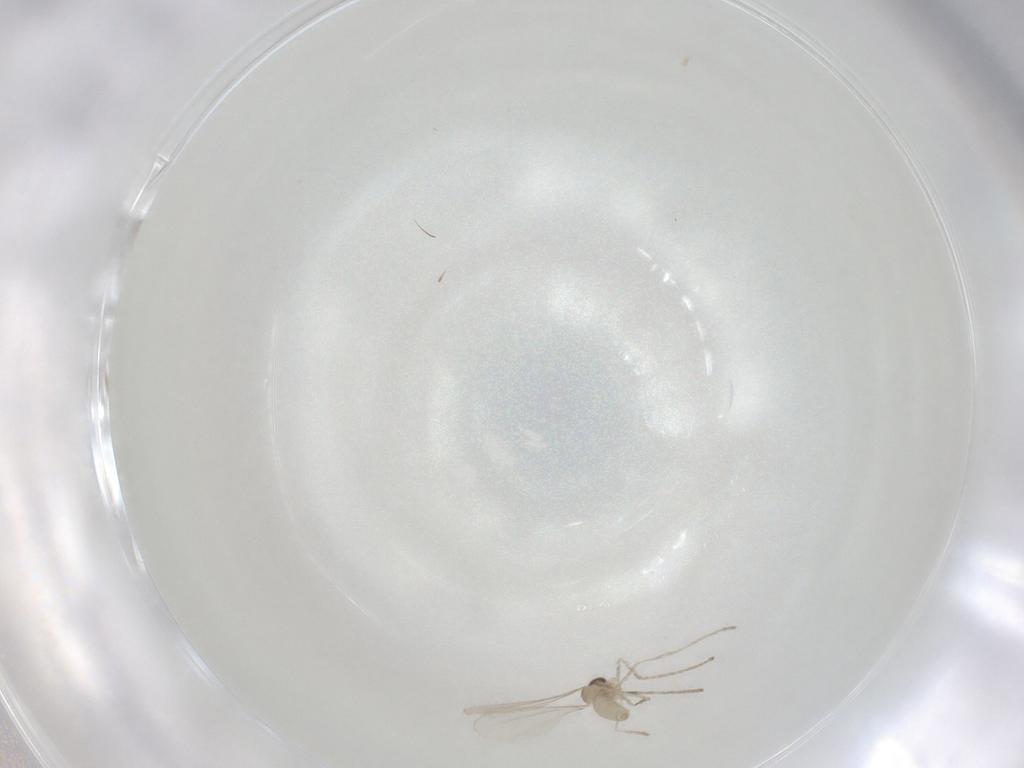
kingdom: Animalia
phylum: Arthropoda
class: Insecta
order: Diptera
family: Cecidomyiidae
